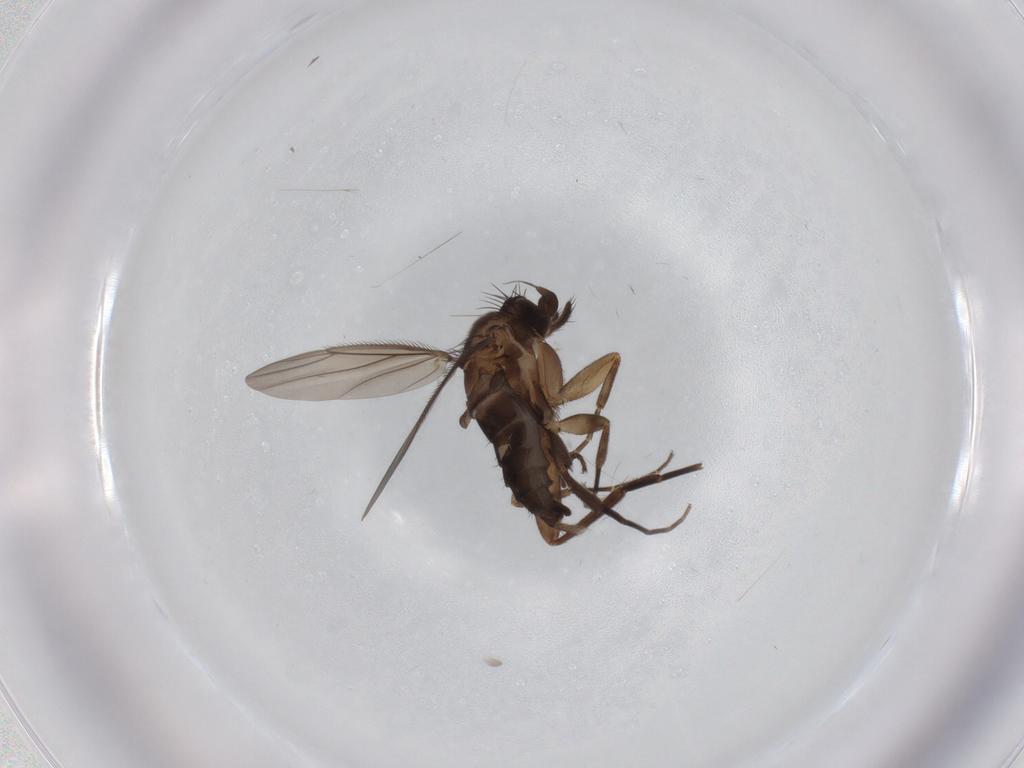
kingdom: Animalia
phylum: Arthropoda
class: Insecta
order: Diptera
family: Phoridae
